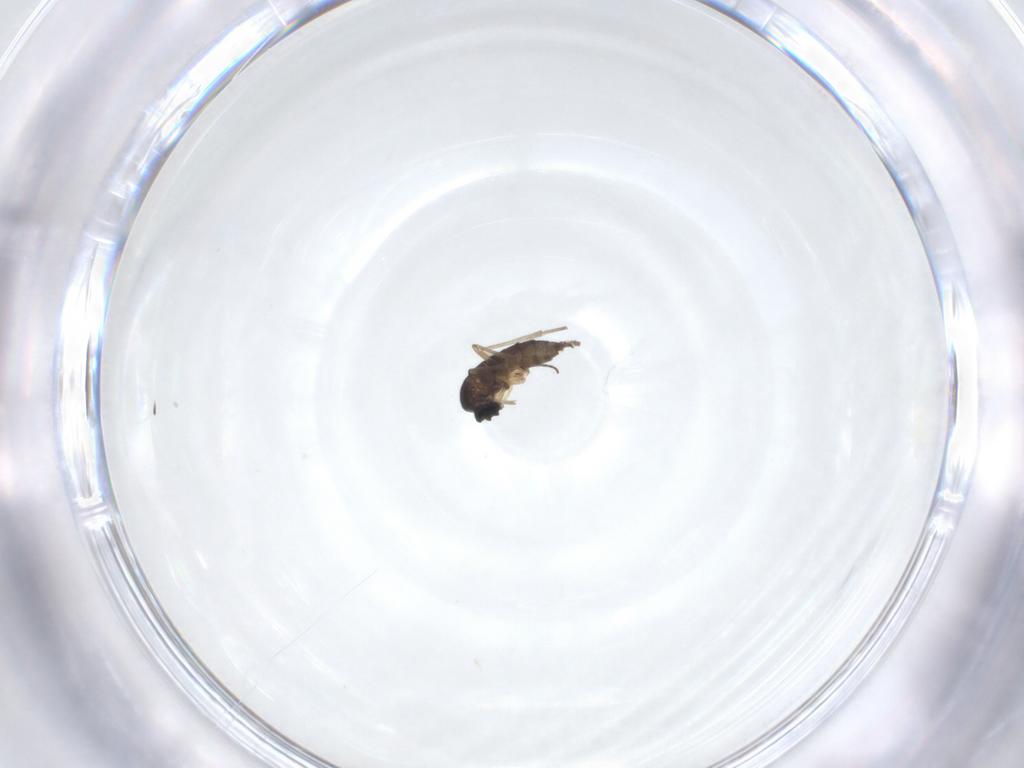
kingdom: Animalia
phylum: Arthropoda
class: Insecta
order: Diptera
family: Sciaridae
